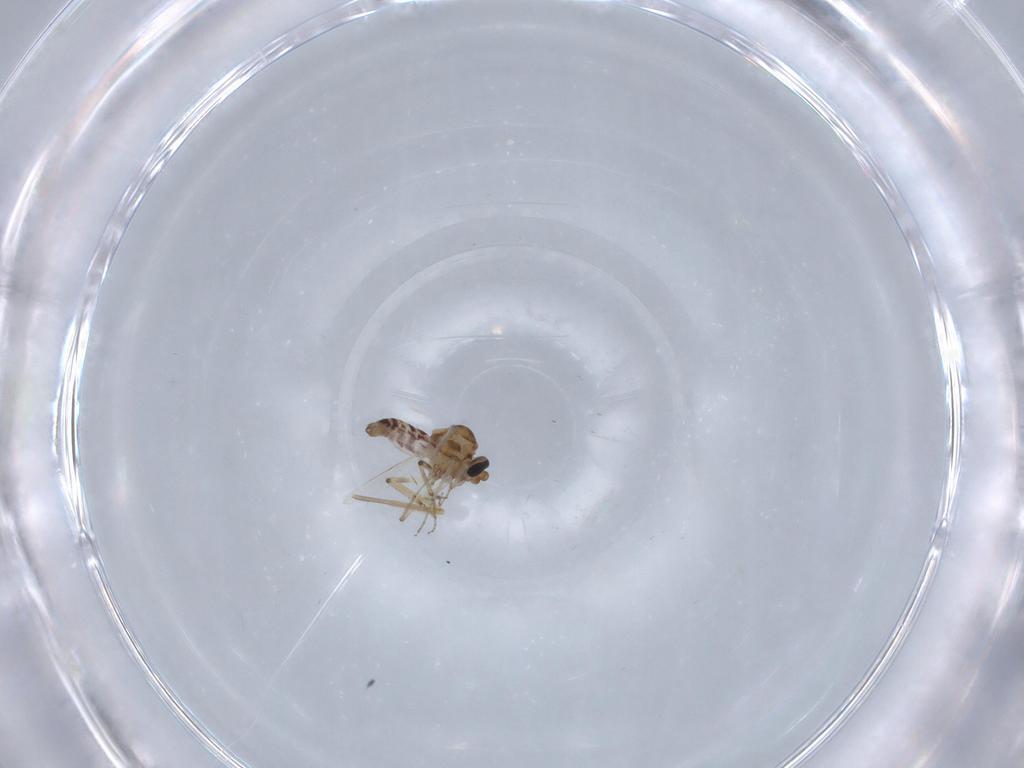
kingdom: Animalia
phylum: Arthropoda
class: Insecta
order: Diptera
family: Ceratopogonidae
